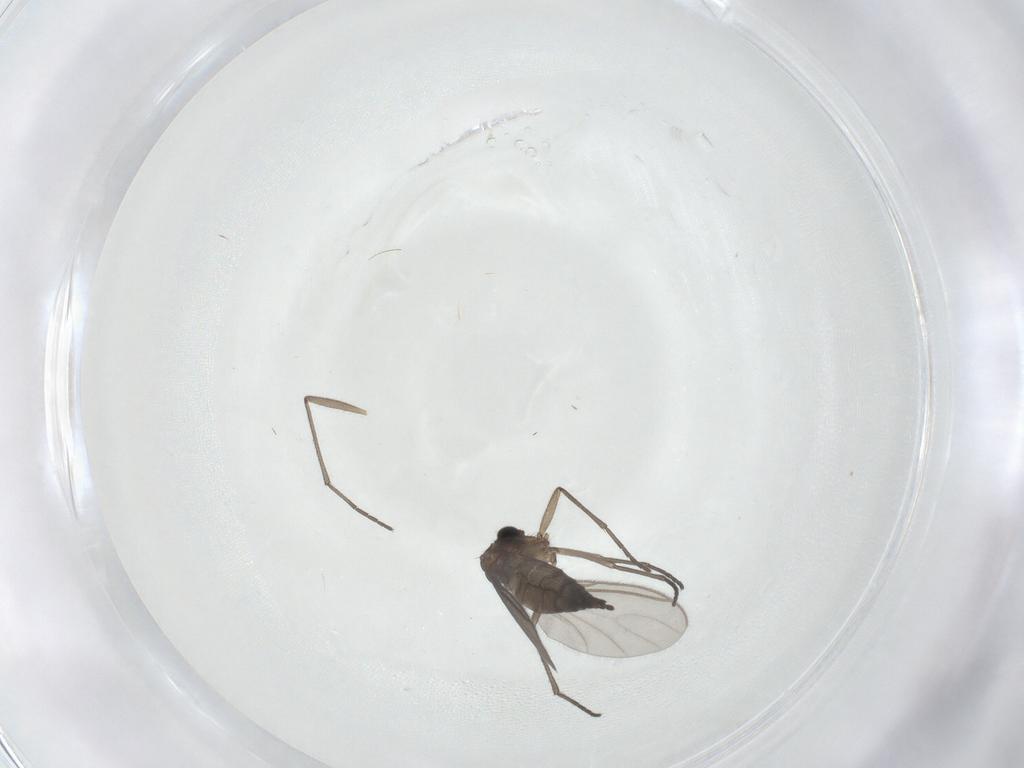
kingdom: Animalia
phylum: Arthropoda
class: Insecta
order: Diptera
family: Sciaridae
